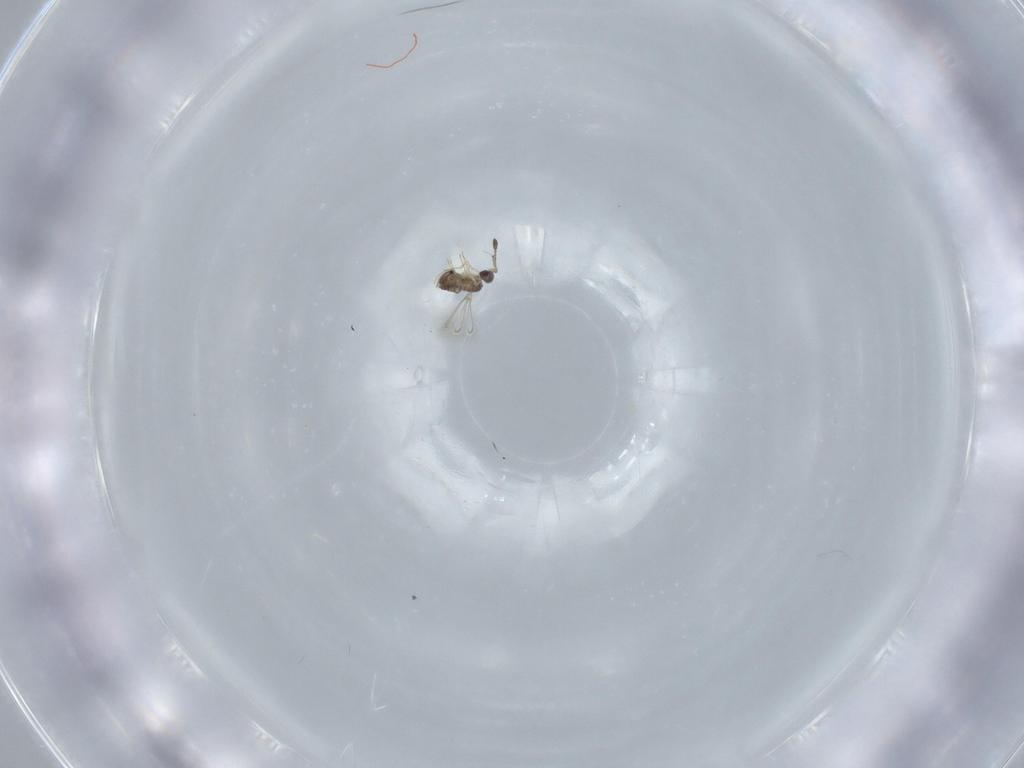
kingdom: Animalia
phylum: Arthropoda
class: Insecta
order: Hymenoptera
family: Mymaridae
